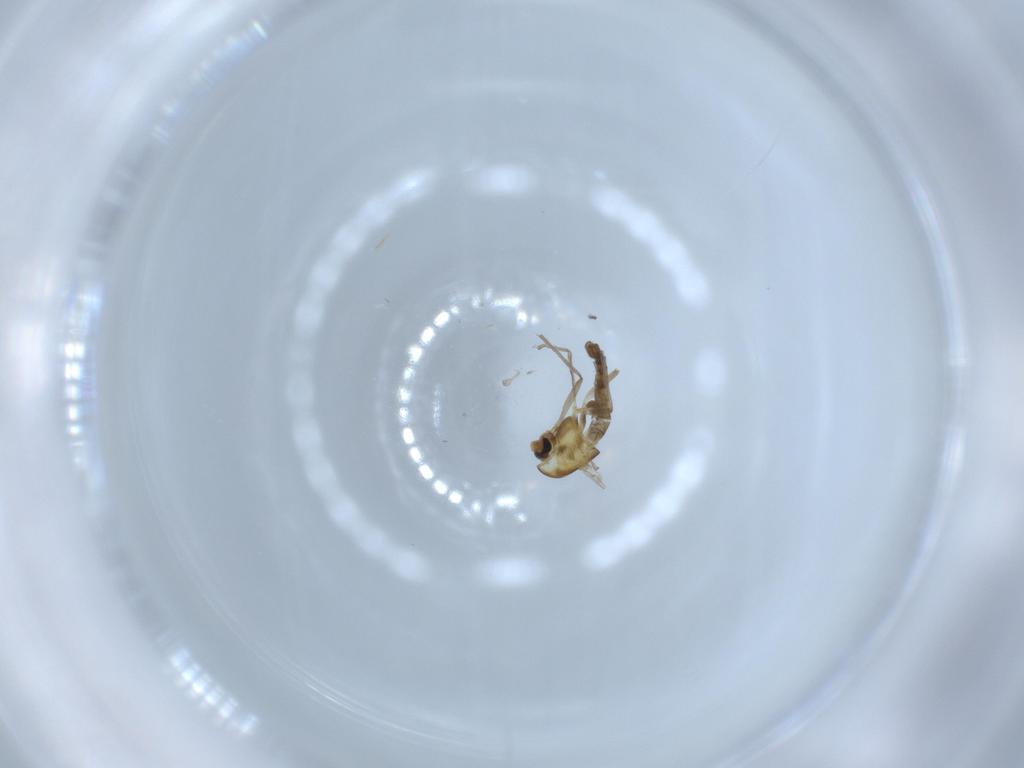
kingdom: Animalia
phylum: Arthropoda
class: Insecta
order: Diptera
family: Chironomidae
